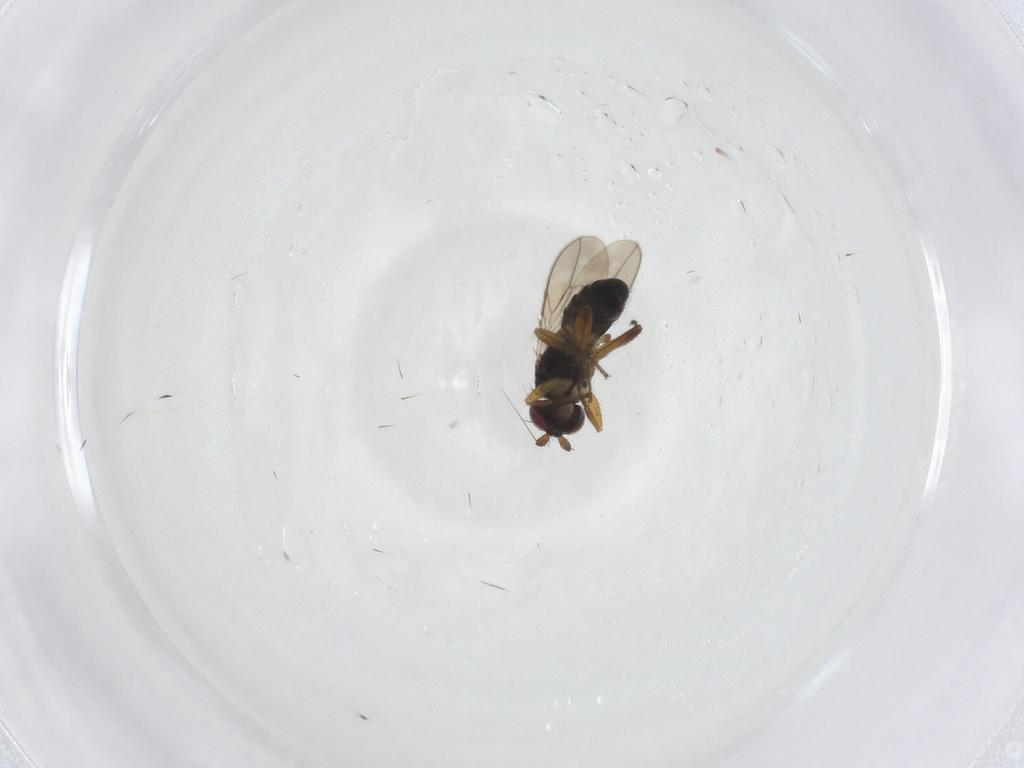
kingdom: Animalia
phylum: Arthropoda
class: Insecta
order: Diptera
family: Sphaeroceridae
